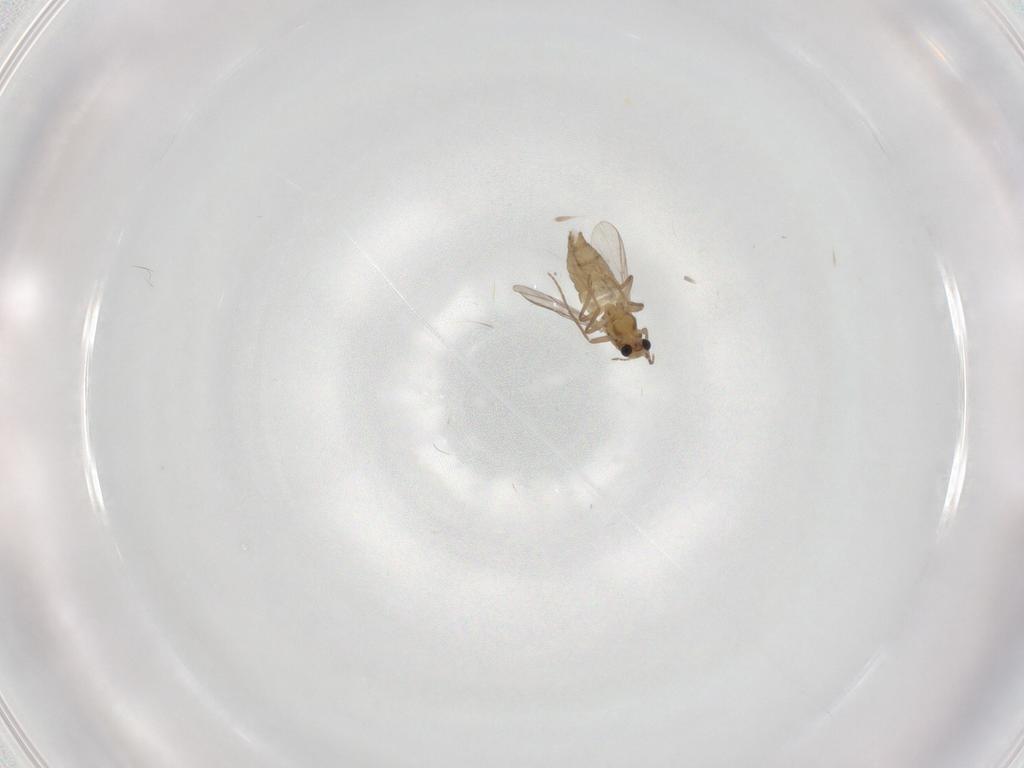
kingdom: Animalia
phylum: Arthropoda
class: Insecta
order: Diptera
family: Chironomidae
